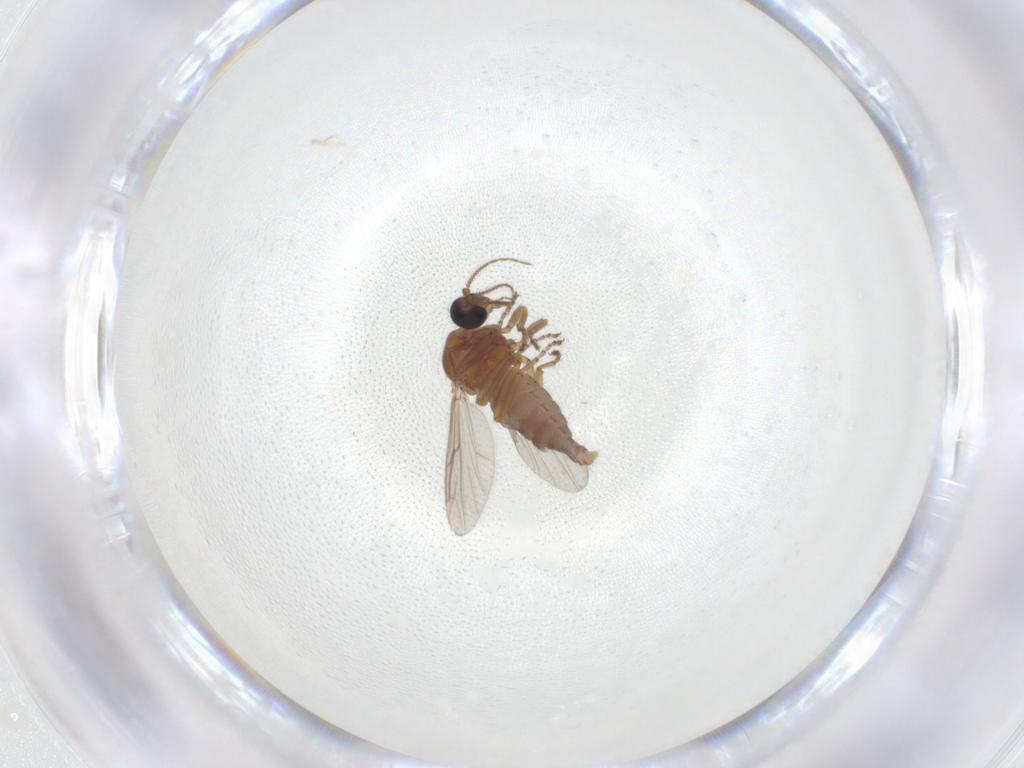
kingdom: Animalia
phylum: Arthropoda
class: Insecta
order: Diptera
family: Ceratopogonidae
